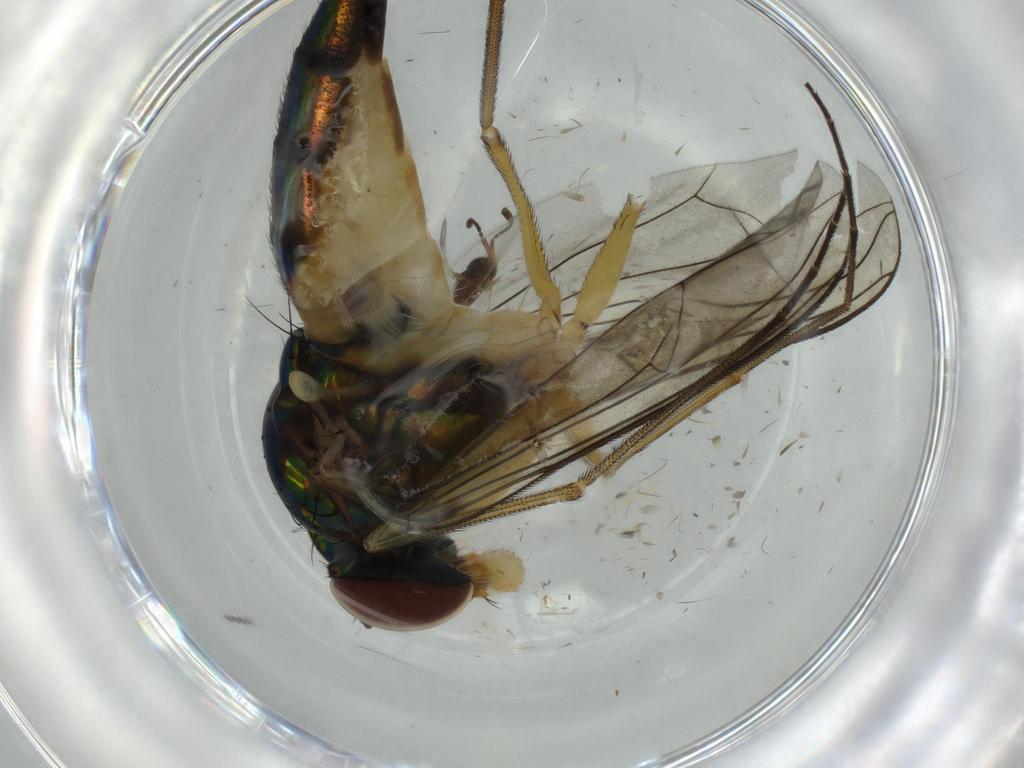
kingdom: Animalia
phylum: Arthropoda
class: Insecta
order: Diptera
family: Dolichopodidae
